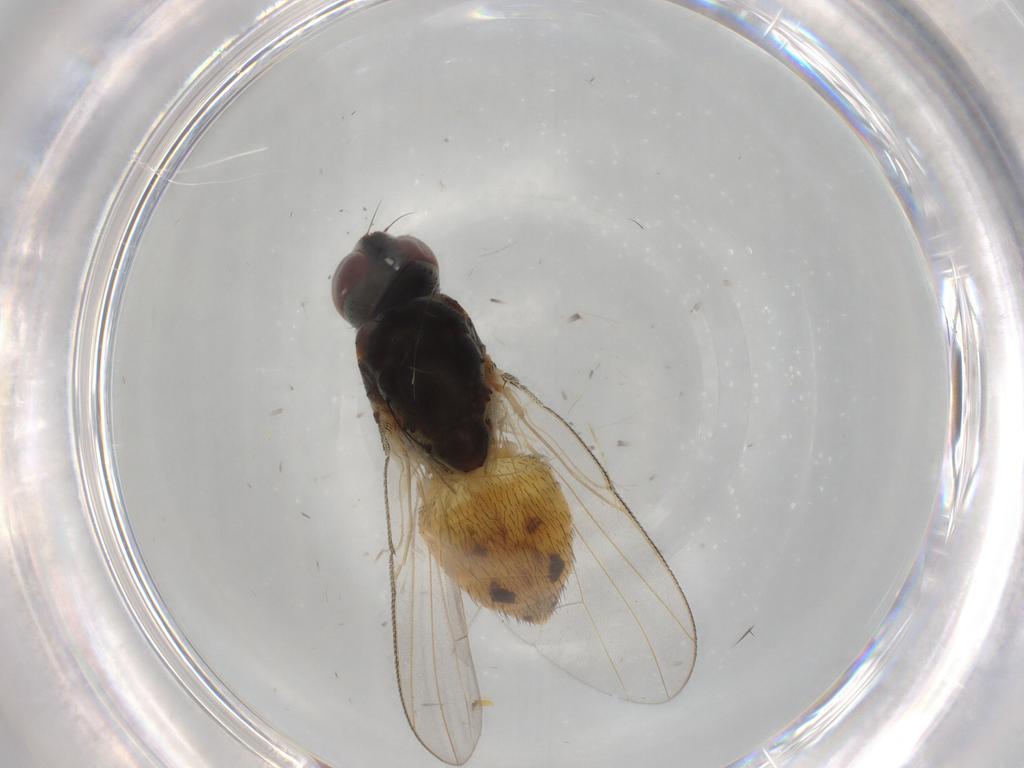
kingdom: Animalia
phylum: Arthropoda
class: Insecta
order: Diptera
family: Muscidae
